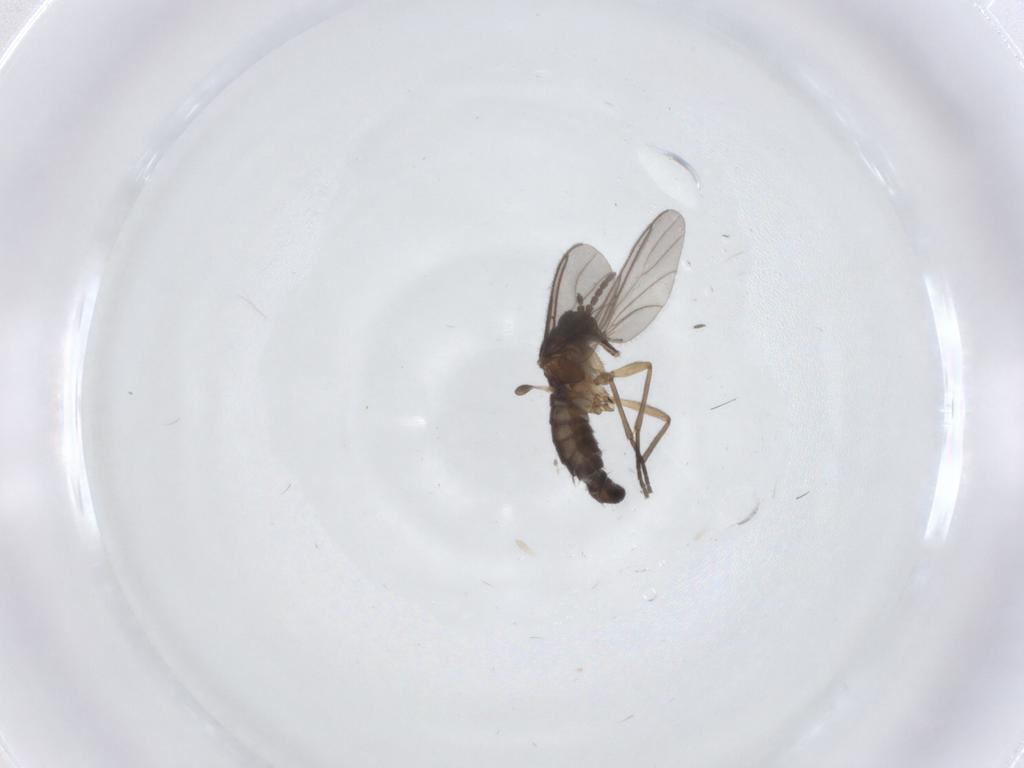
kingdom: Animalia
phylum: Arthropoda
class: Insecta
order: Diptera
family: Sciaridae
